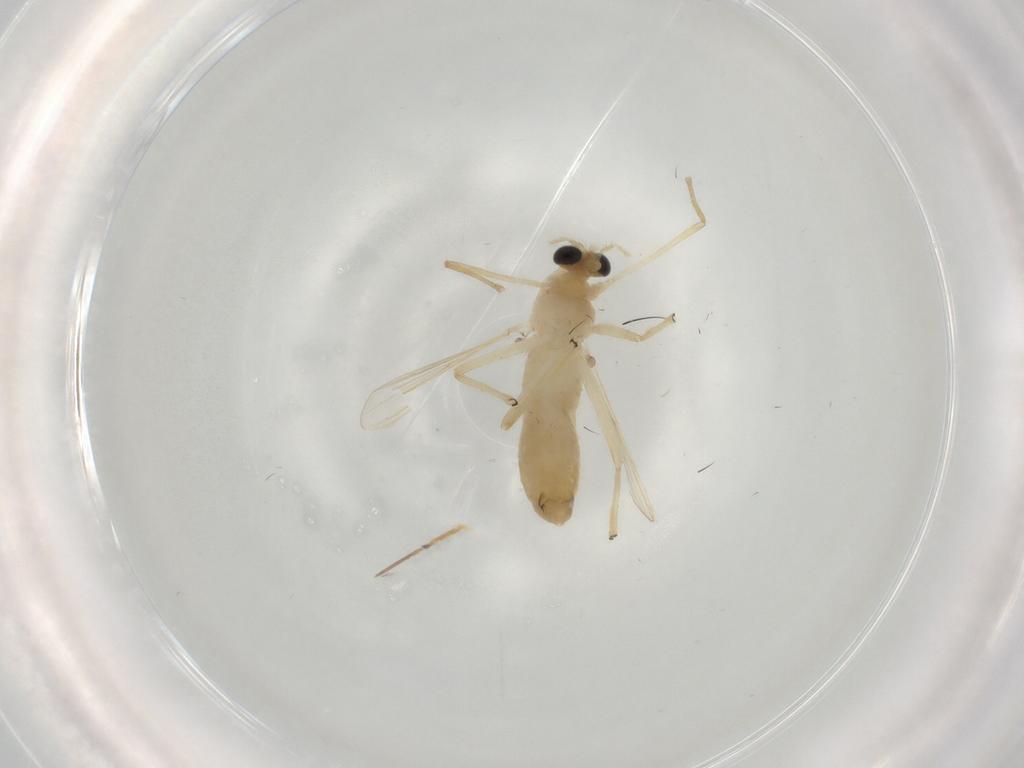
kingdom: Animalia
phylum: Arthropoda
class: Insecta
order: Diptera
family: Chironomidae
